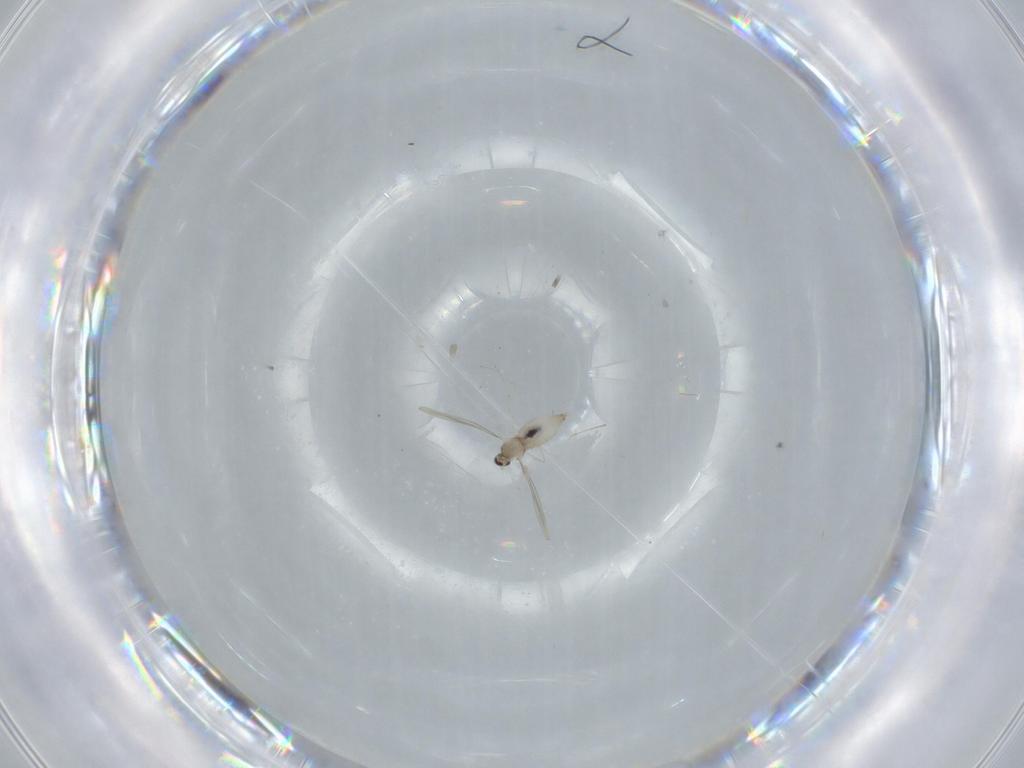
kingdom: Animalia
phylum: Arthropoda
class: Insecta
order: Diptera
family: Cecidomyiidae
